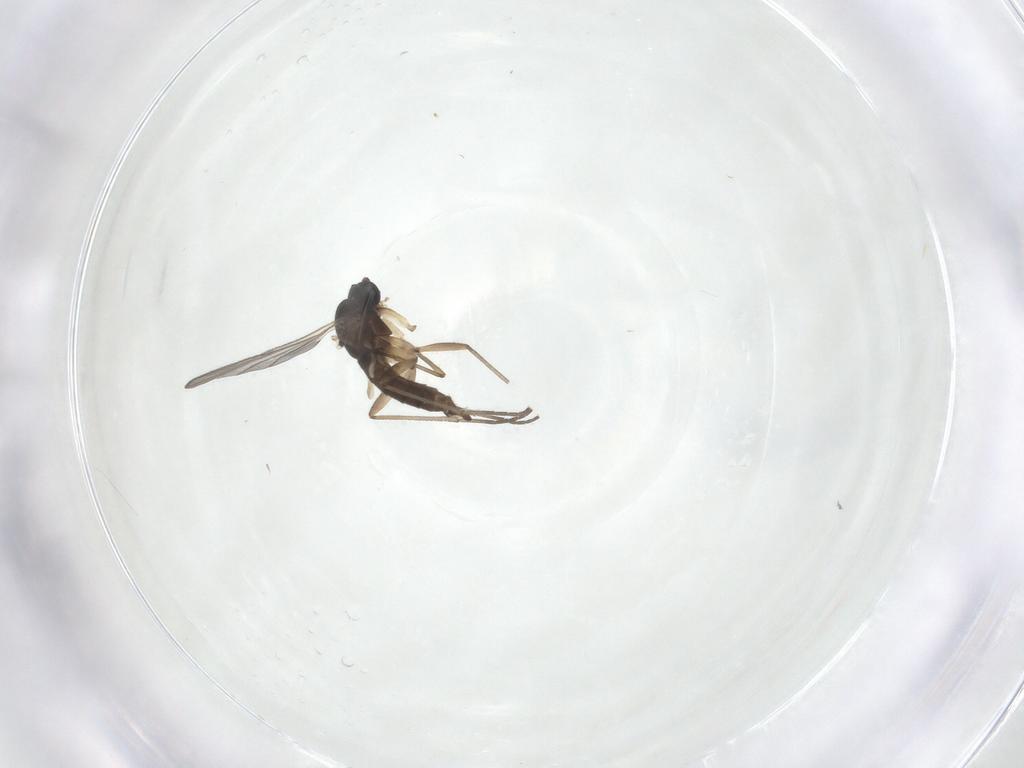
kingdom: Animalia
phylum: Arthropoda
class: Insecta
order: Diptera
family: Sciaridae
